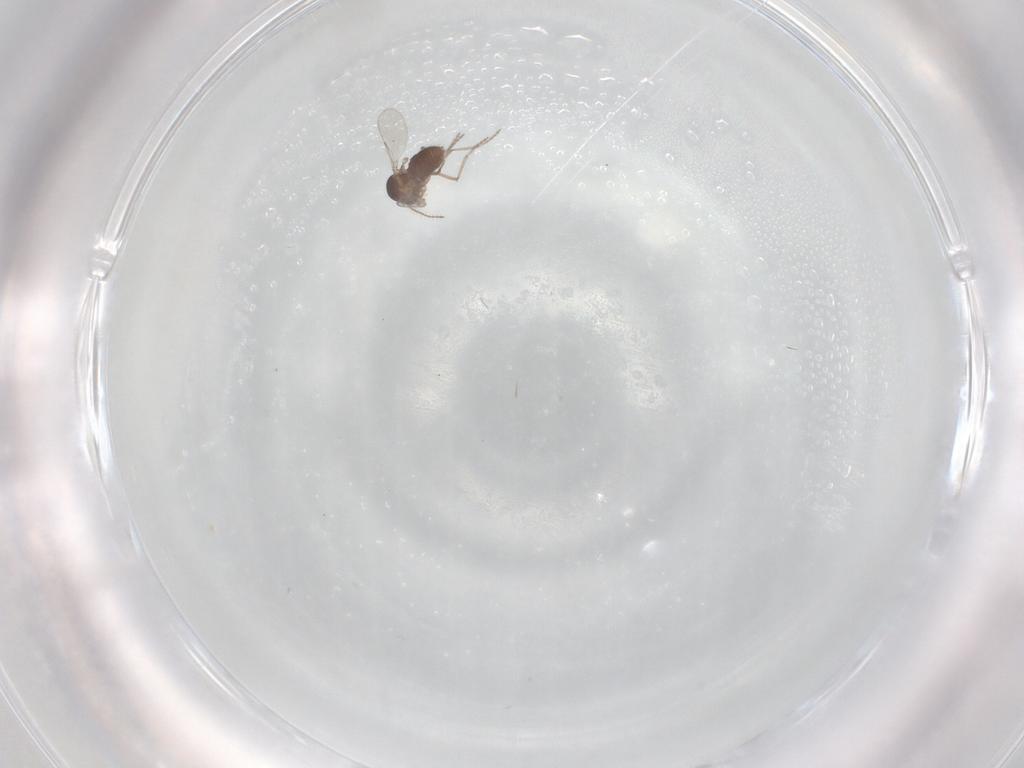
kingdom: Animalia
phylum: Arthropoda
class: Insecta
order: Diptera
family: Ceratopogonidae
